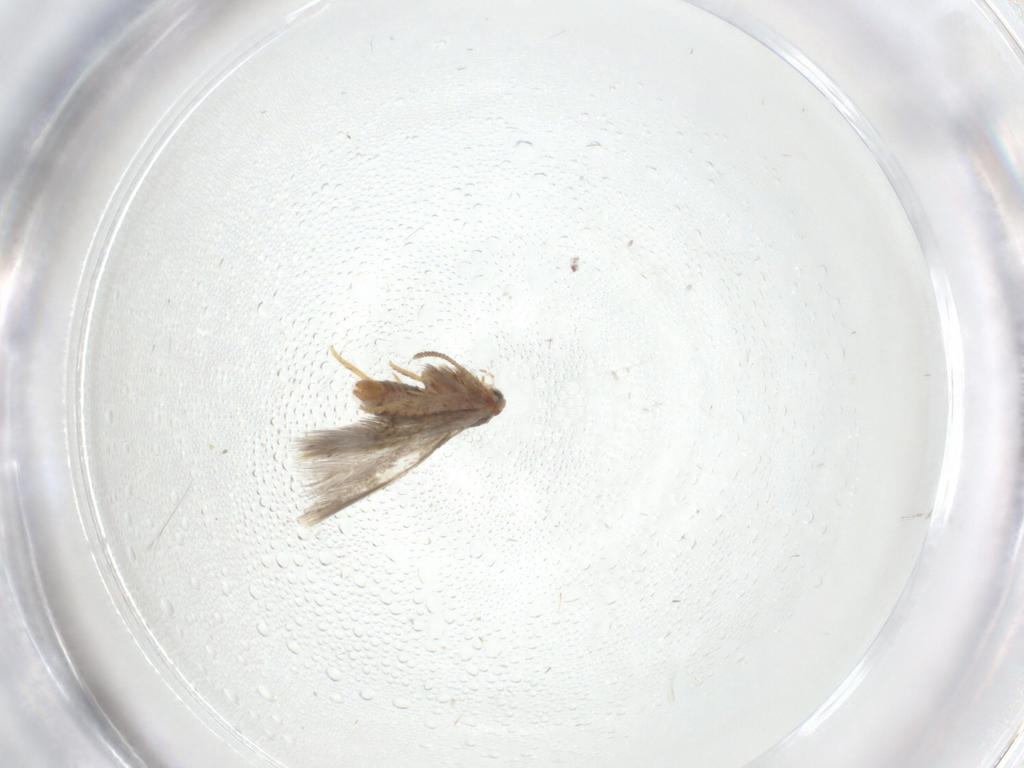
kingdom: Animalia
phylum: Arthropoda
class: Insecta
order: Lepidoptera
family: Nepticulidae
